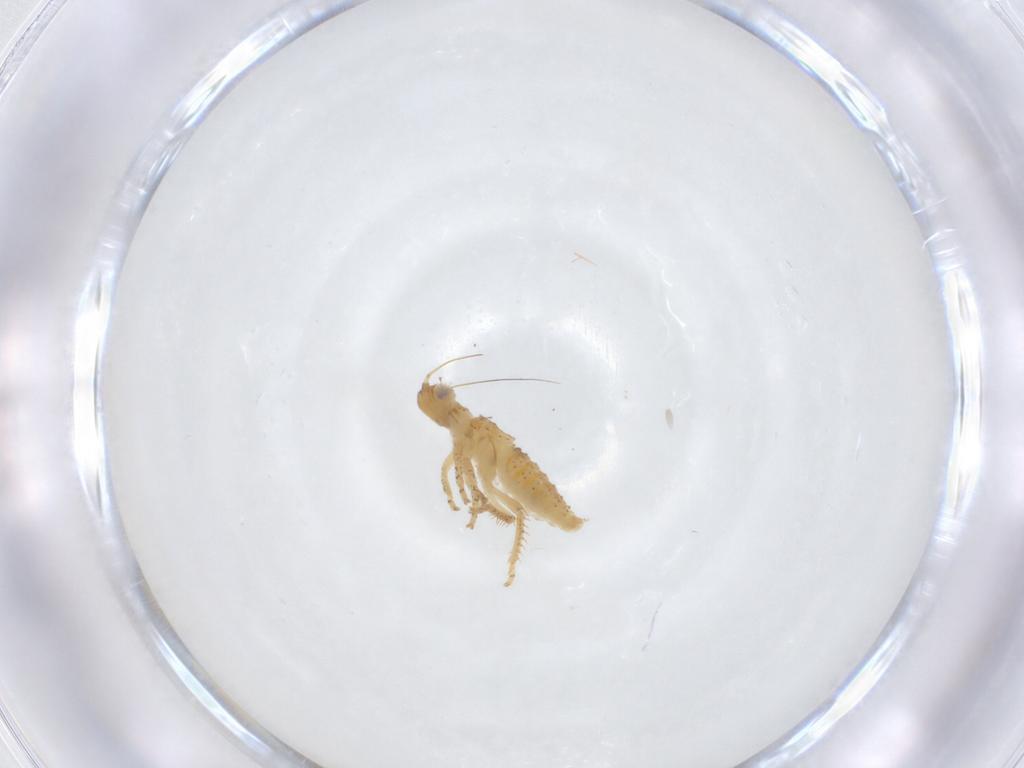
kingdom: Animalia
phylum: Arthropoda
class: Insecta
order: Hemiptera
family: Cicadellidae
